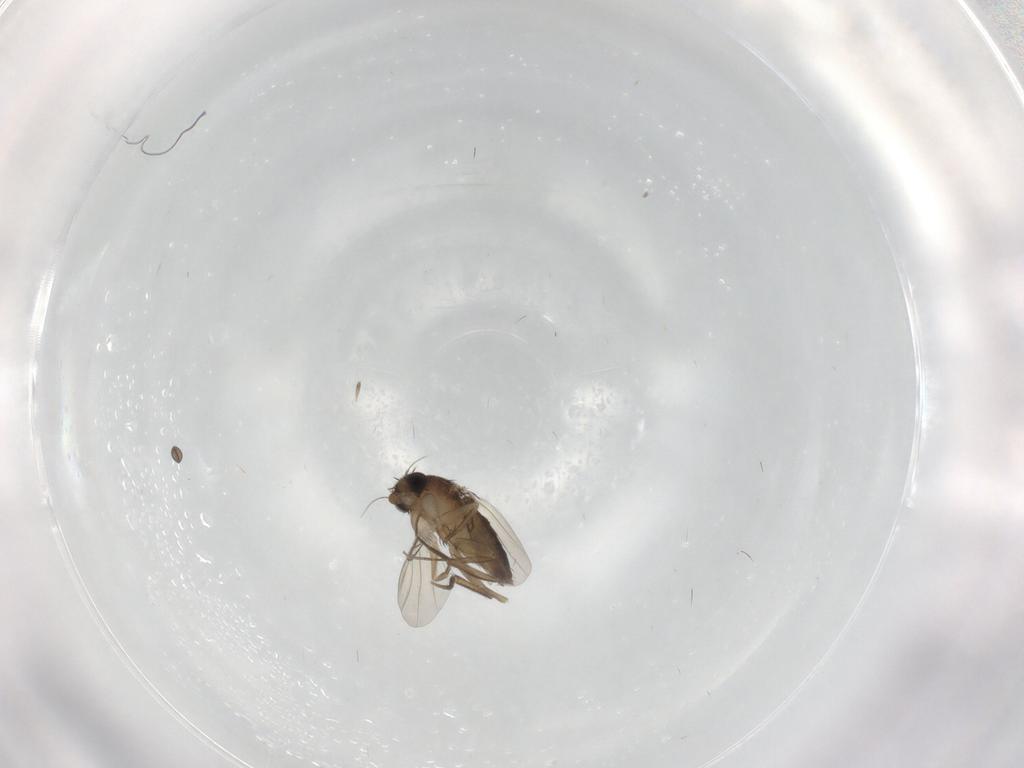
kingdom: Animalia
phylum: Arthropoda
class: Insecta
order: Diptera
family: Phoridae
